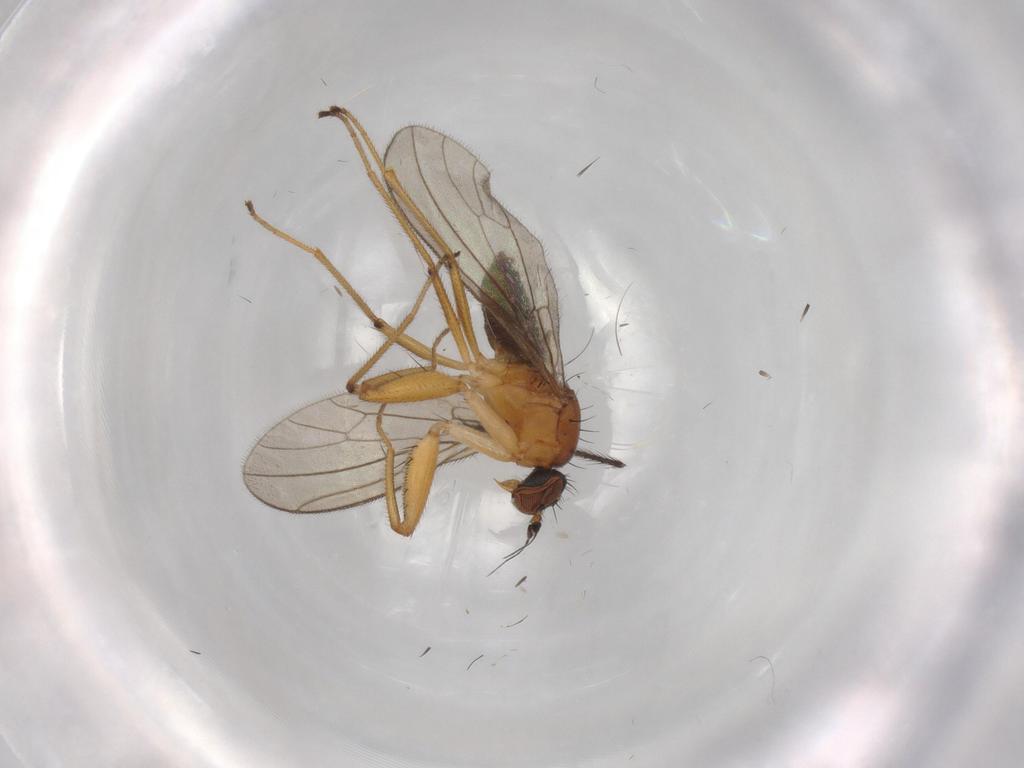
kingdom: Animalia
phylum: Arthropoda
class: Insecta
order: Diptera
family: Empididae
